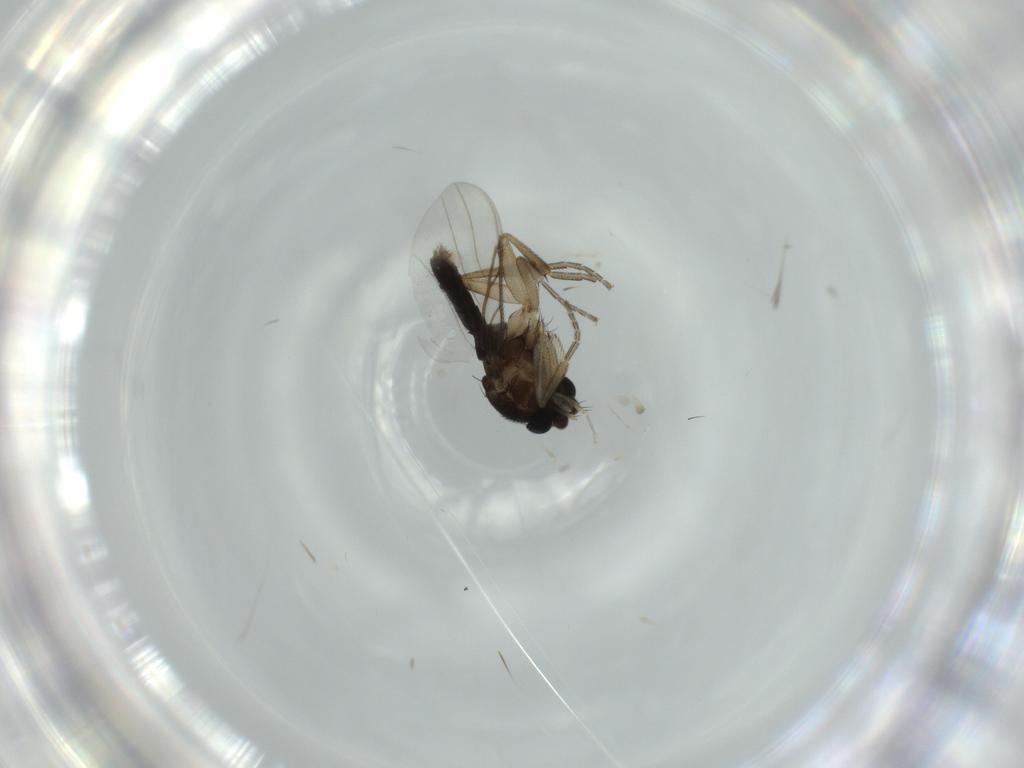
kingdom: Animalia
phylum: Arthropoda
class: Insecta
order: Diptera
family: Phoridae
